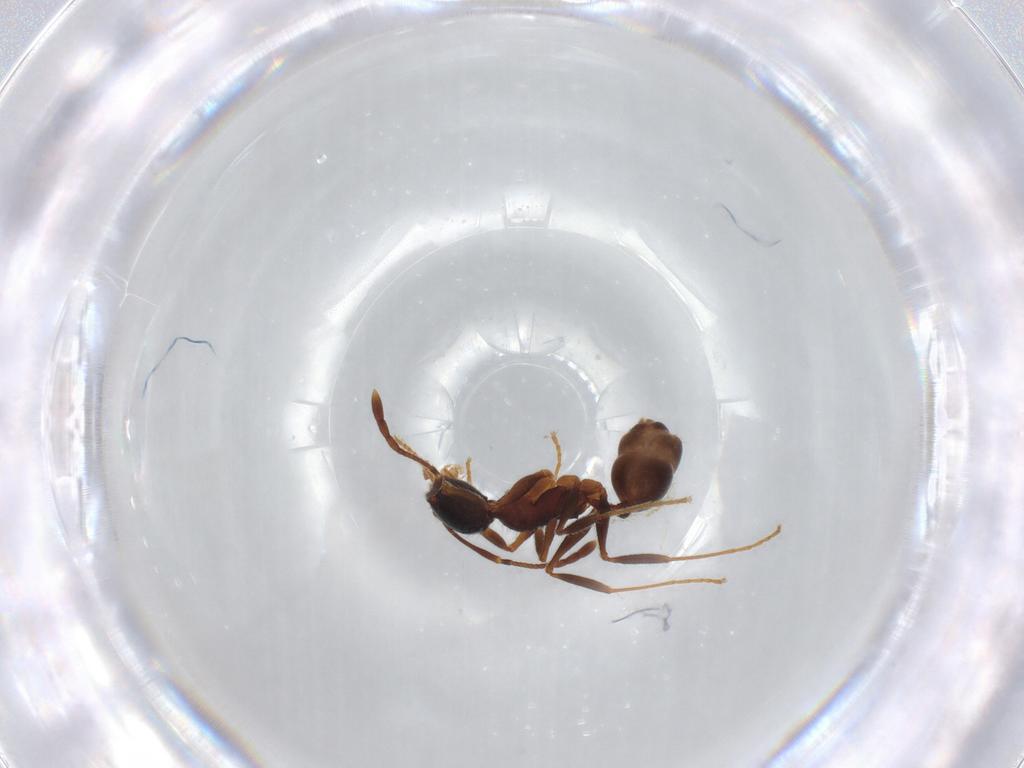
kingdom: Animalia
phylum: Arthropoda
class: Insecta
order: Hymenoptera
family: Formicidae
